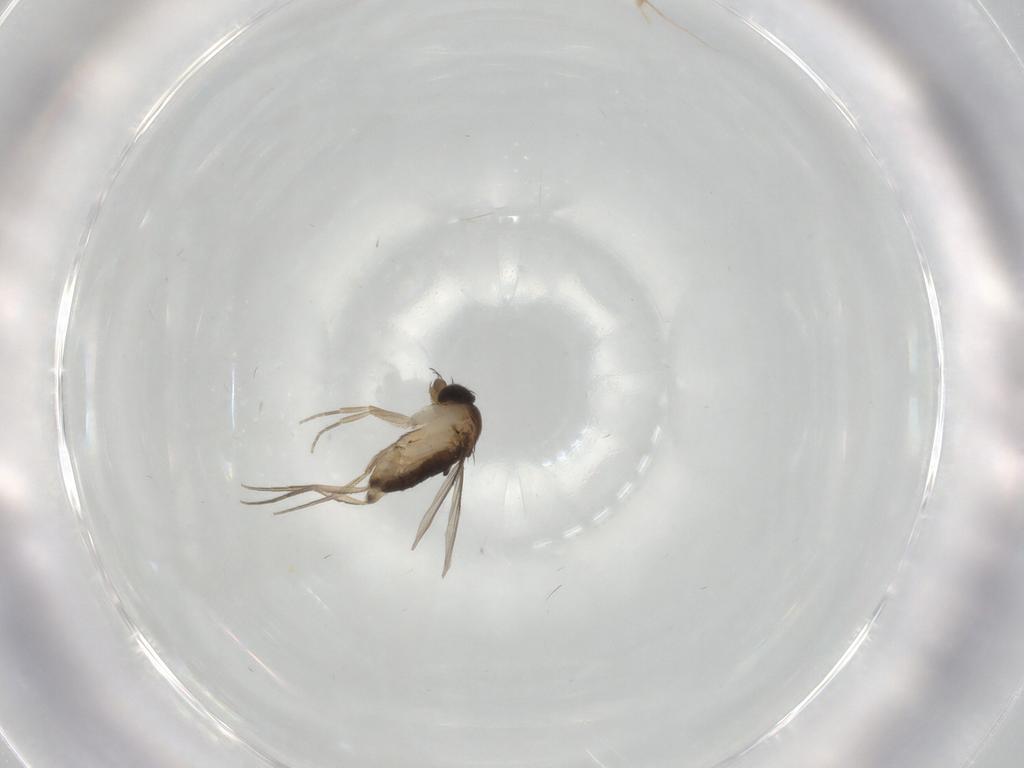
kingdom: Animalia
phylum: Arthropoda
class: Insecta
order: Diptera
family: Phoridae
